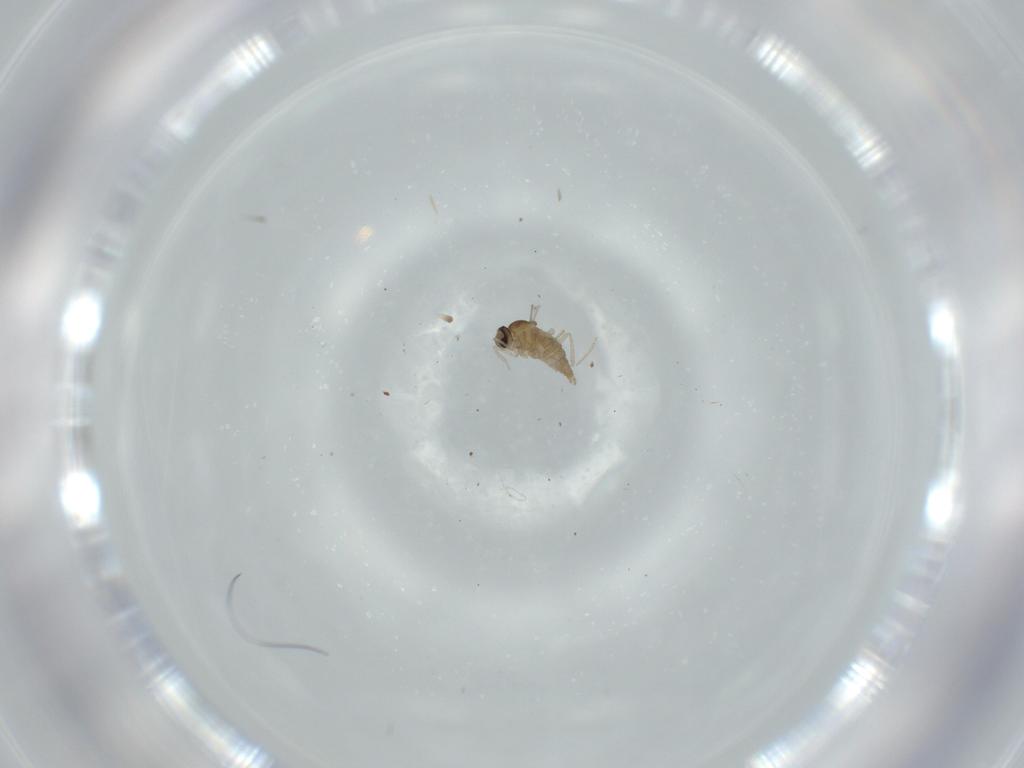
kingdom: Animalia
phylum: Arthropoda
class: Insecta
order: Diptera
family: Cecidomyiidae
